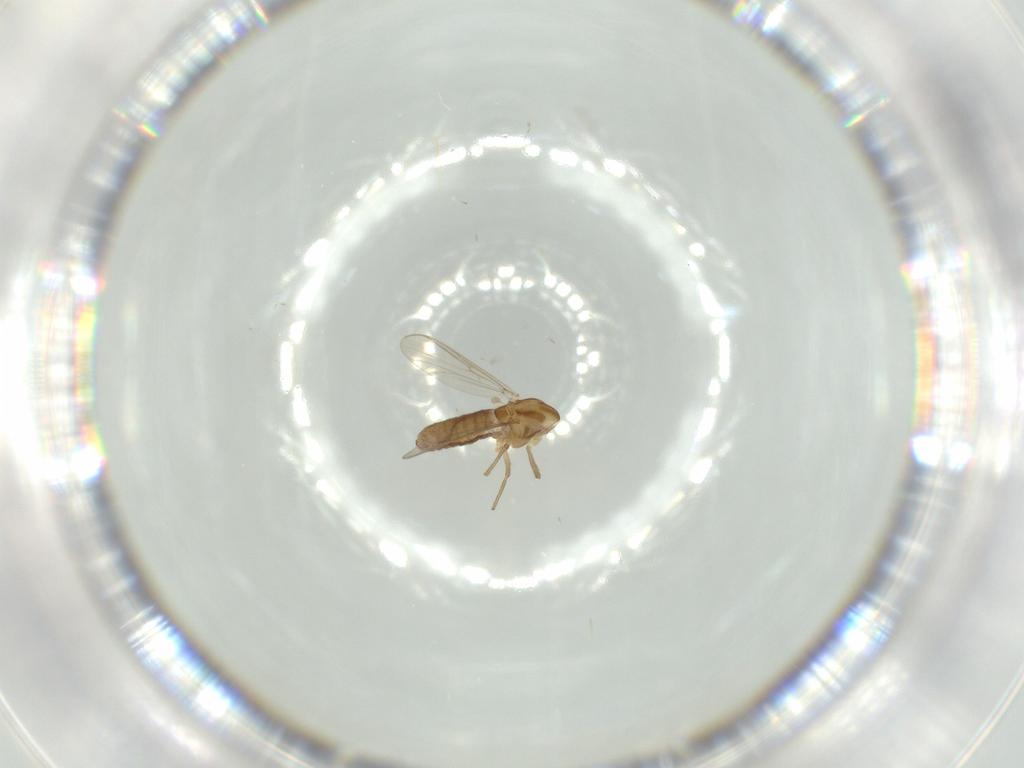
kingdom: Animalia
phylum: Arthropoda
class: Insecta
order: Diptera
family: Chironomidae
